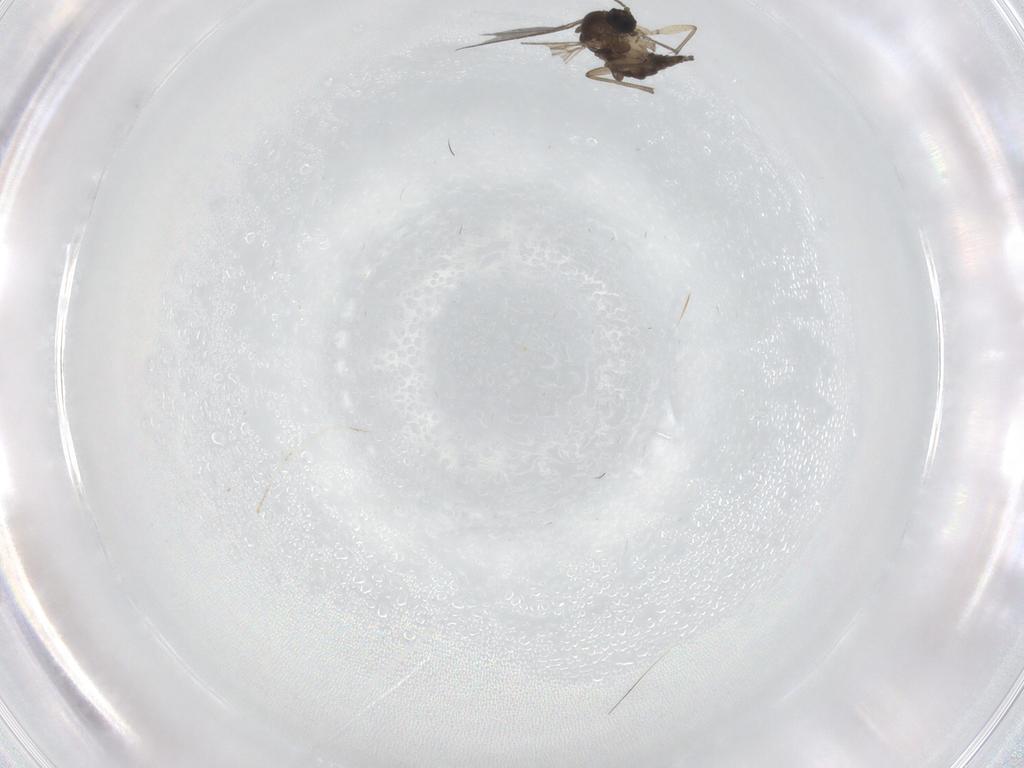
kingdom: Animalia
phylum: Arthropoda
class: Insecta
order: Diptera
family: Sciaridae
